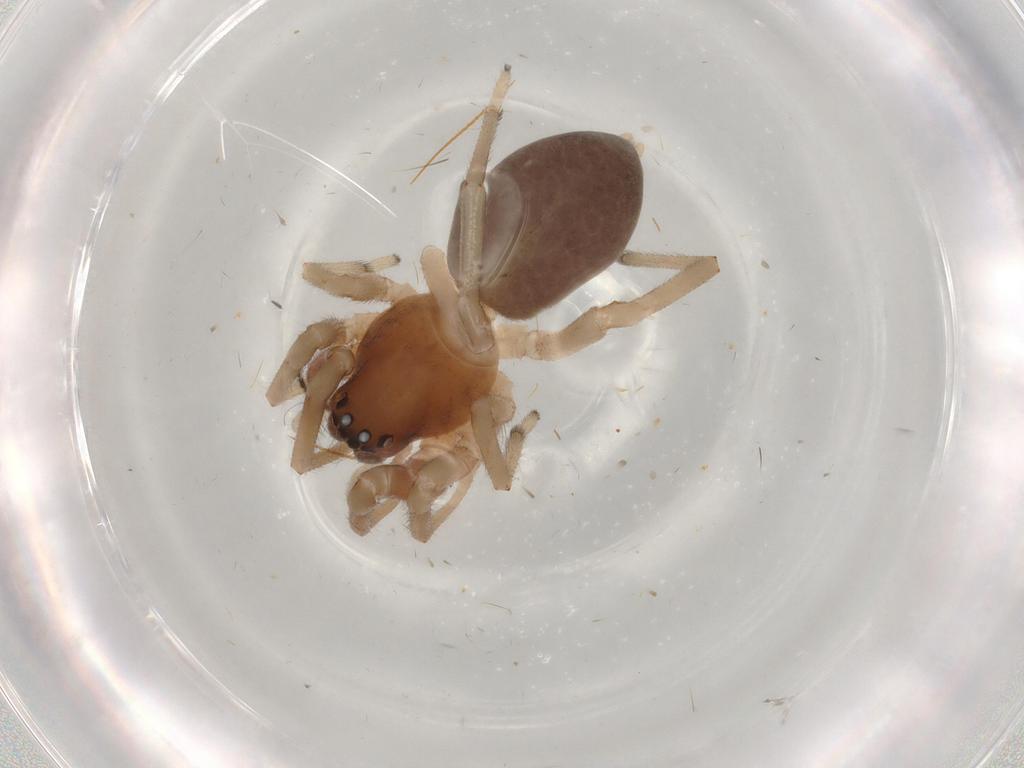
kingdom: Animalia
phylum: Arthropoda
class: Arachnida
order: Araneae
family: Trachelidae
